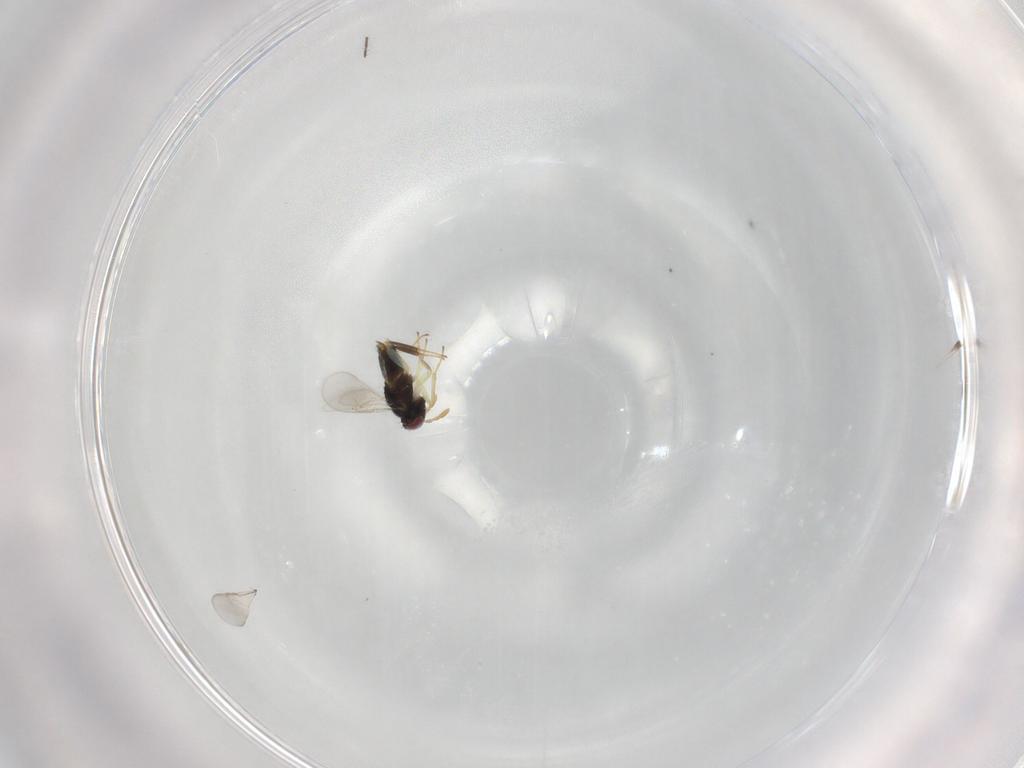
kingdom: Animalia
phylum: Arthropoda
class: Insecta
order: Hymenoptera
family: Aphelinidae
